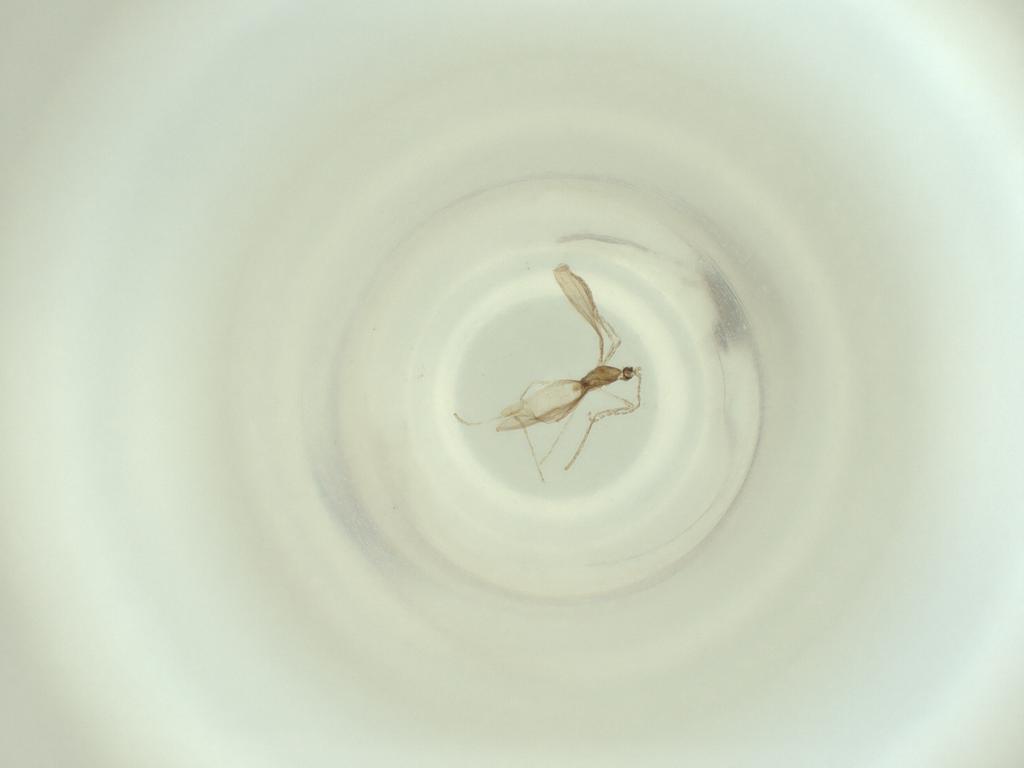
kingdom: Animalia
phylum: Arthropoda
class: Insecta
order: Diptera
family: Cecidomyiidae
